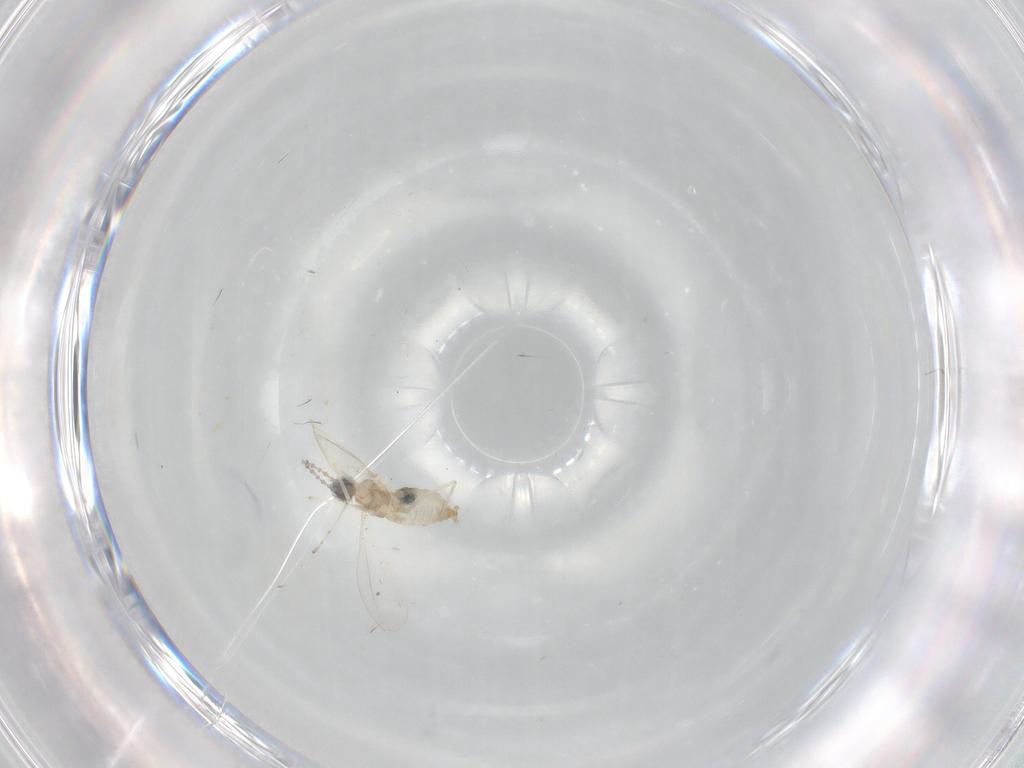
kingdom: Animalia
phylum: Arthropoda
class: Insecta
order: Diptera
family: Cecidomyiidae
